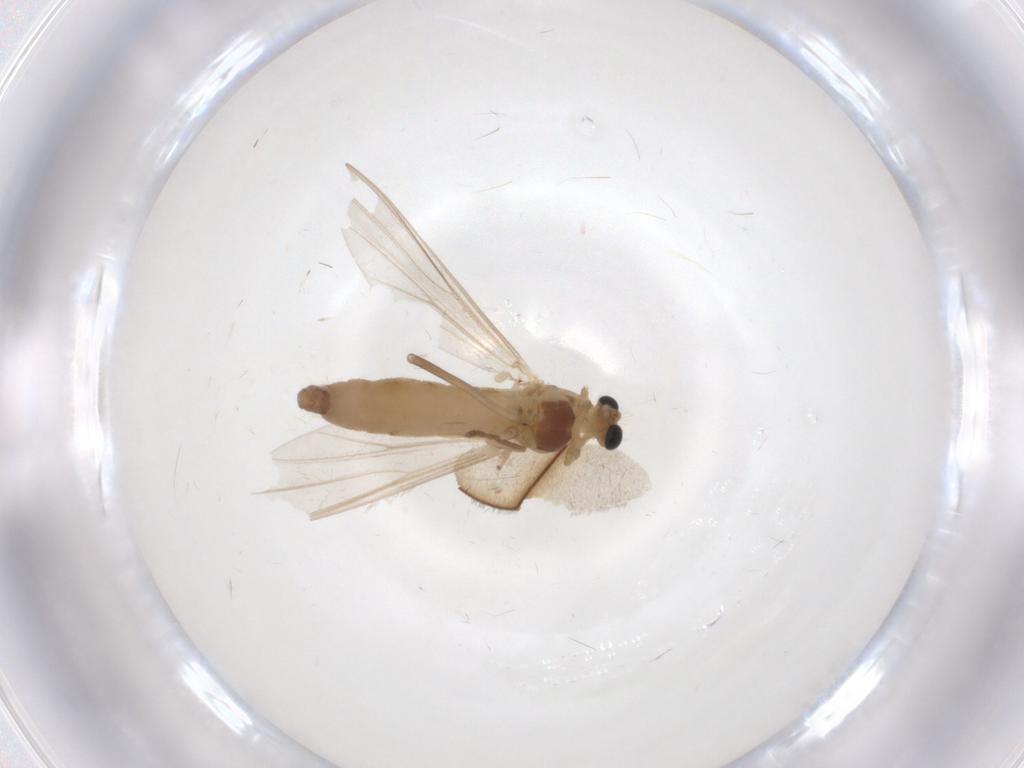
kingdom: Animalia
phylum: Arthropoda
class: Insecta
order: Diptera
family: Chironomidae
